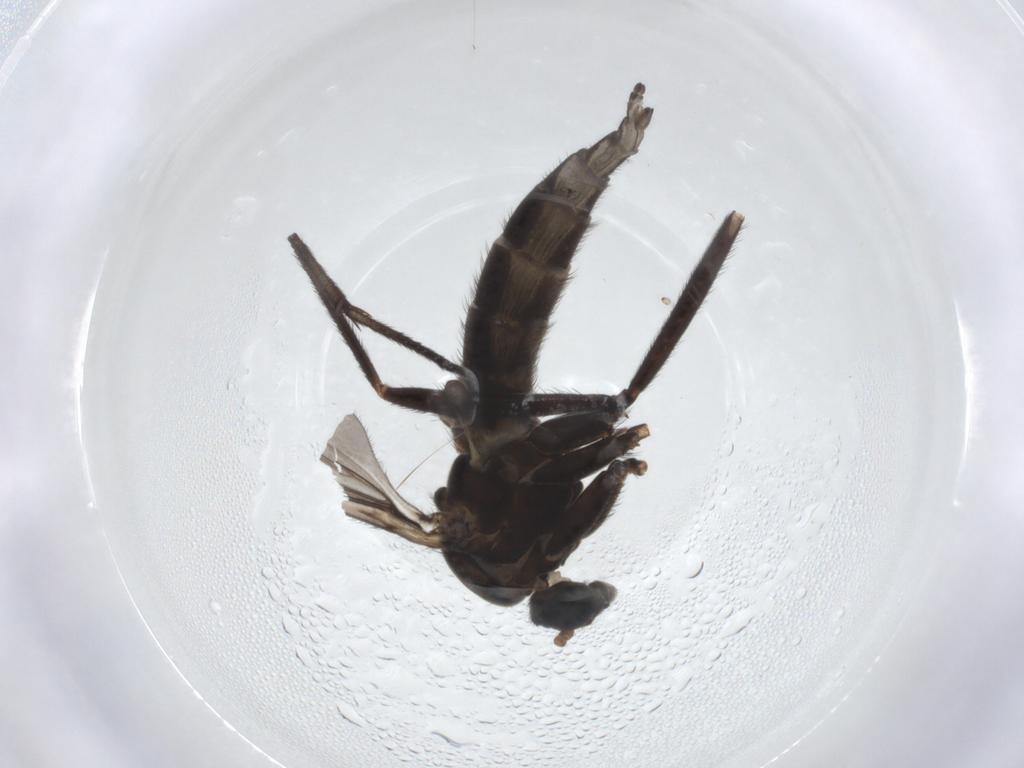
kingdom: Animalia
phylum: Arthropoda
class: Insecta
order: Diptera
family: Sciaridae
